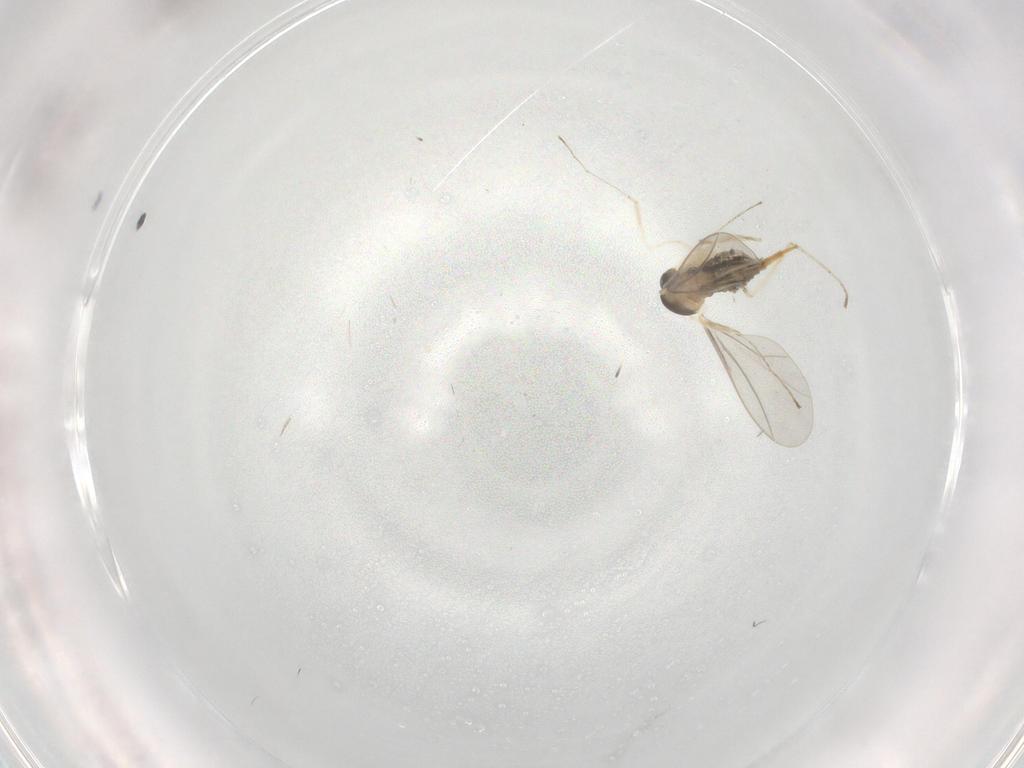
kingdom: Animalia
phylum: Arthropoda
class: Insecta
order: Diptera
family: Cecidomyiidae
